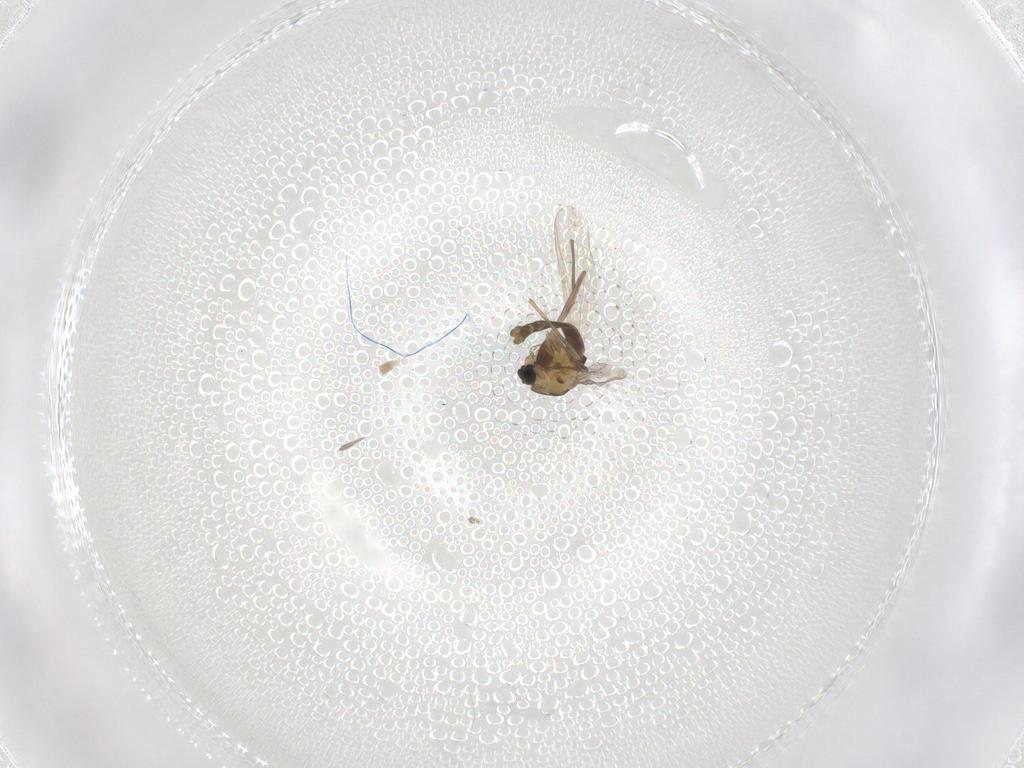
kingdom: Animalia
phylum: Arthropoda
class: Insecta
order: Diptera
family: Chironomidae
